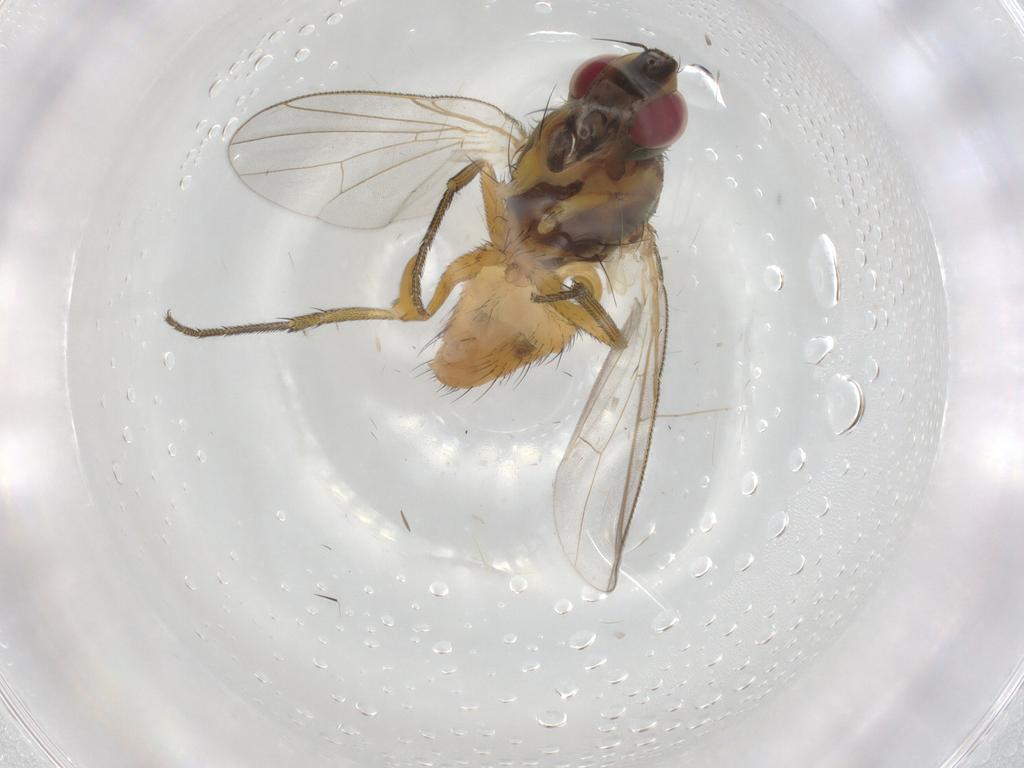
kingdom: Animalia
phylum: Arthropoda
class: Insecta
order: Diptera
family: Muscidae
